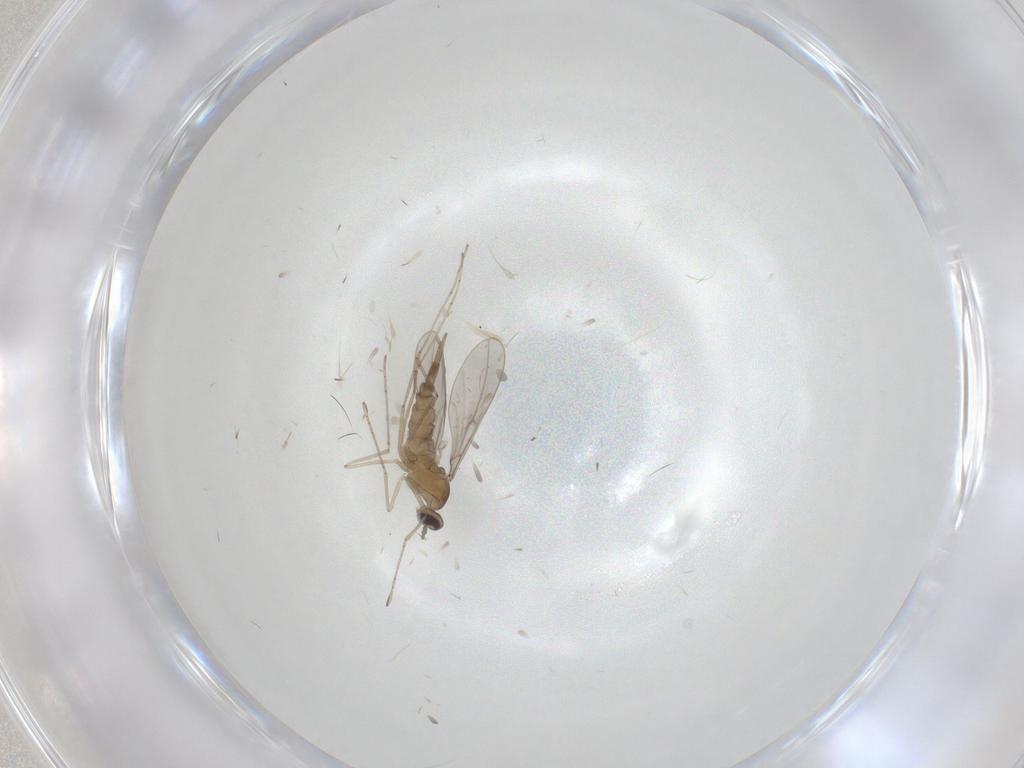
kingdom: Animalia
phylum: Arthropoda
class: Insecta
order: Diptera
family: Cecidomyiidae
